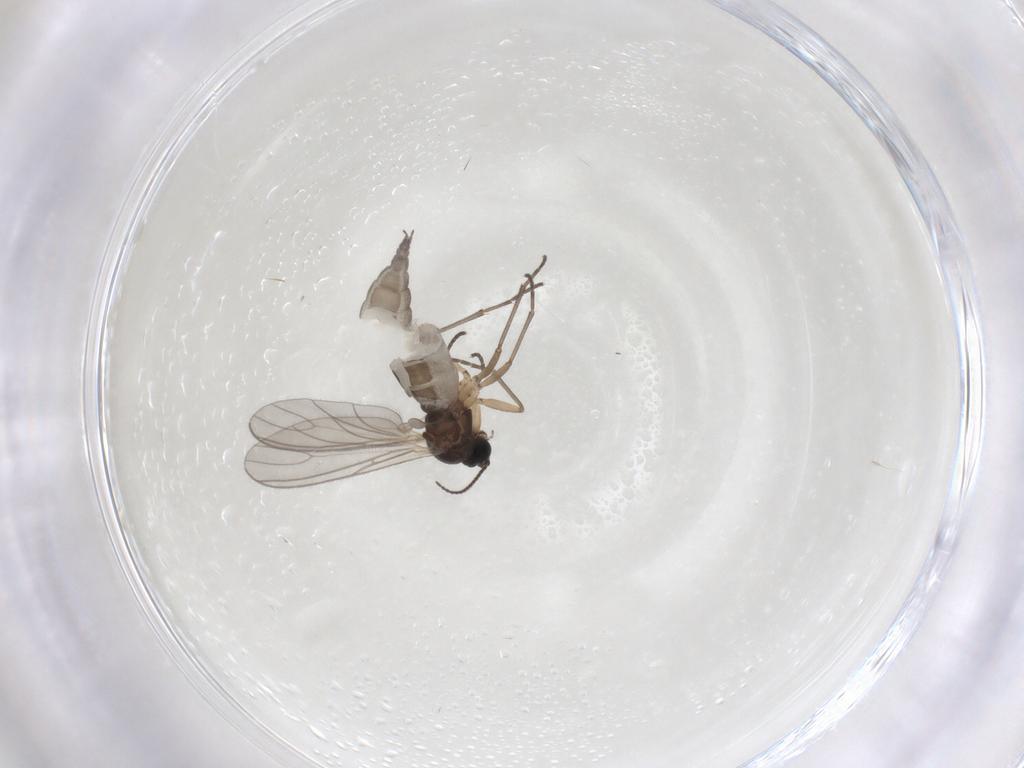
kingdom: Animalia
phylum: Arthropoda
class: Insecta
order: Diptera
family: Sciaridae
